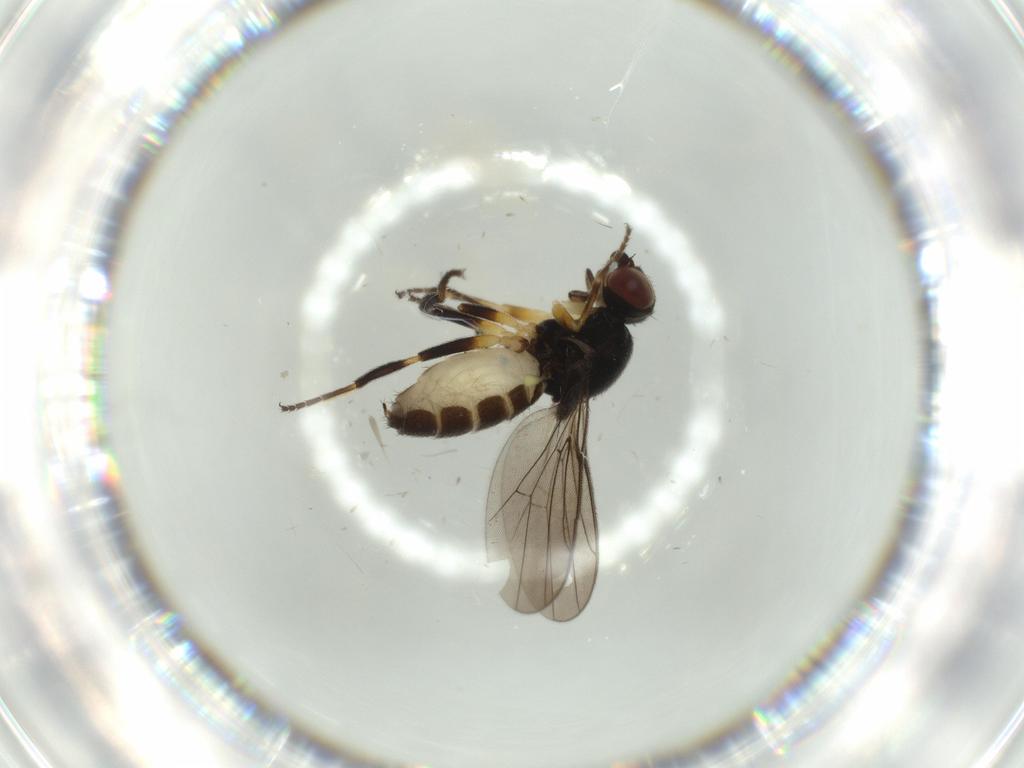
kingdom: Animalia
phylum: Arthropoda
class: Insecta
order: Diptera
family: Chloropidae
